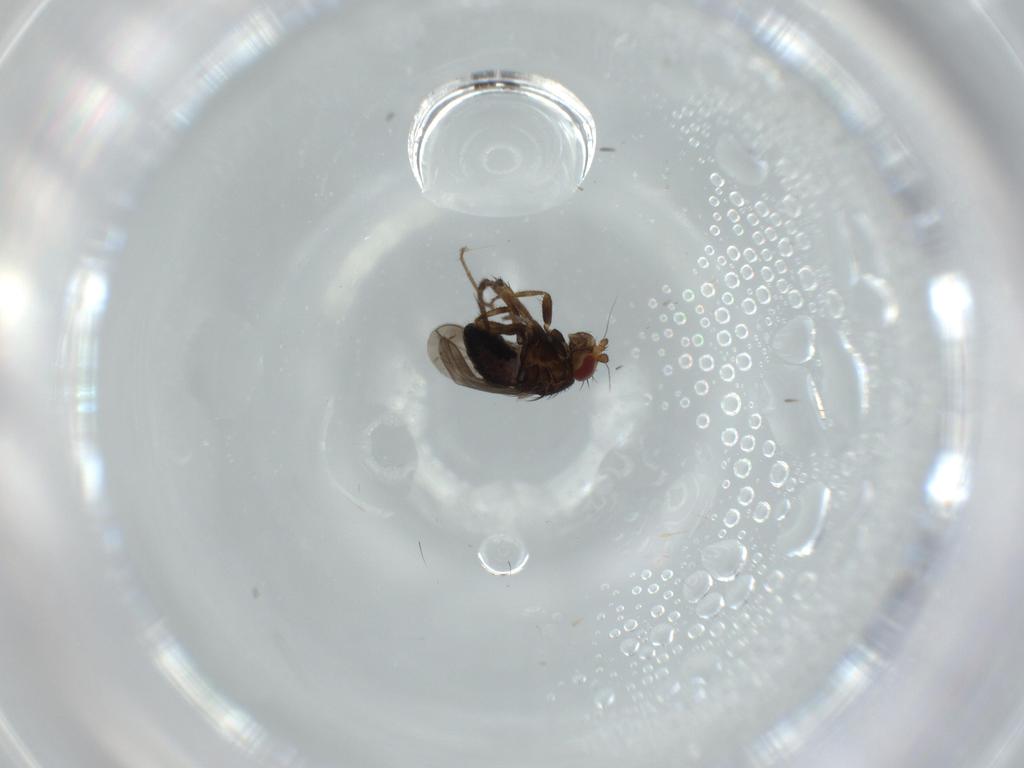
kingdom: Animalia
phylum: Arthropoda
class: Insecta
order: Diptera
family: Sphaeroceridae
